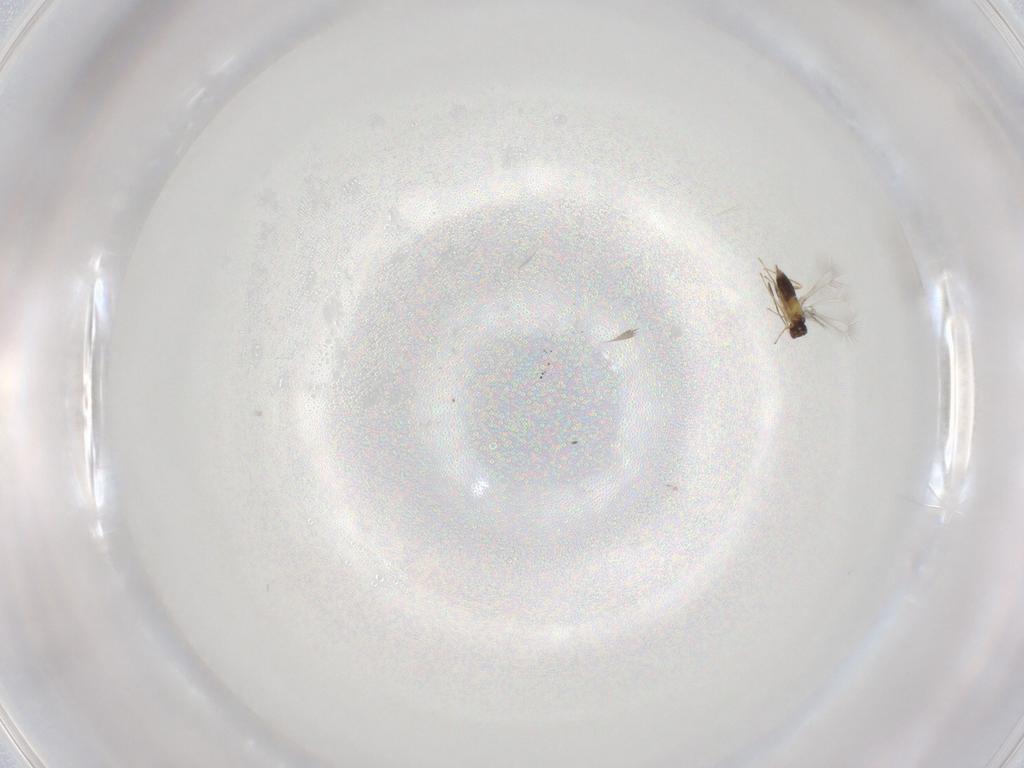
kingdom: Animalia
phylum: Arthropoda
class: Insecta
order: Hymenoptera
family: Mymaridae
